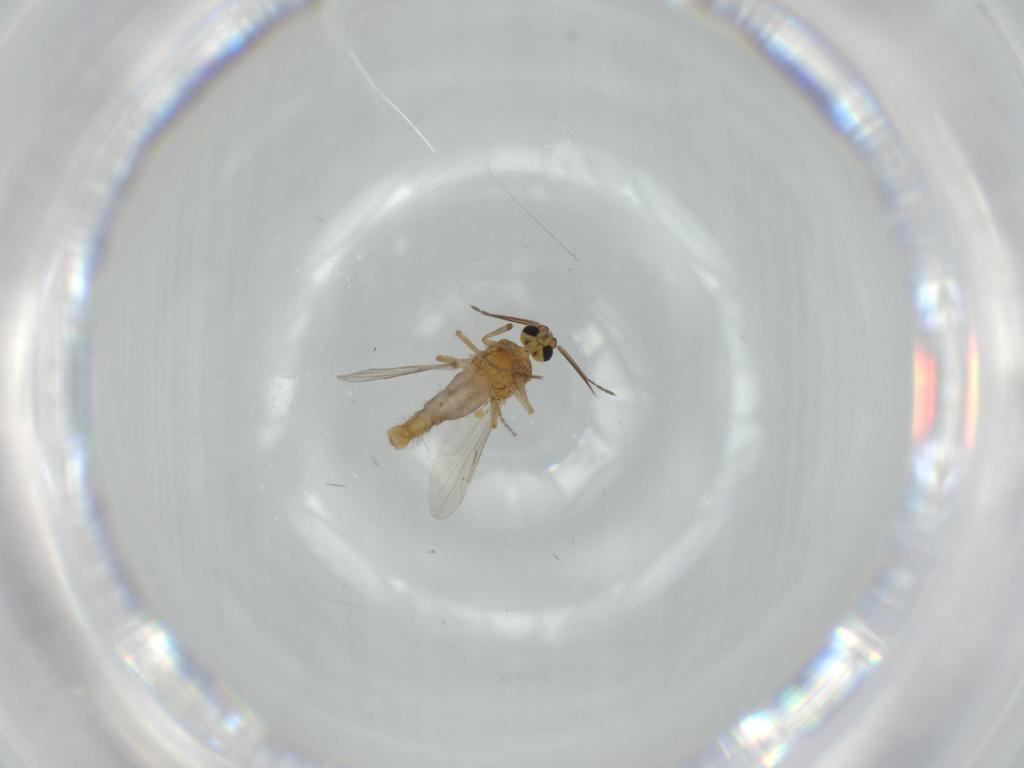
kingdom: Animalia
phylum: Arthropoda
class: Insecta
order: Diptera
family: Ceratopogonidae
